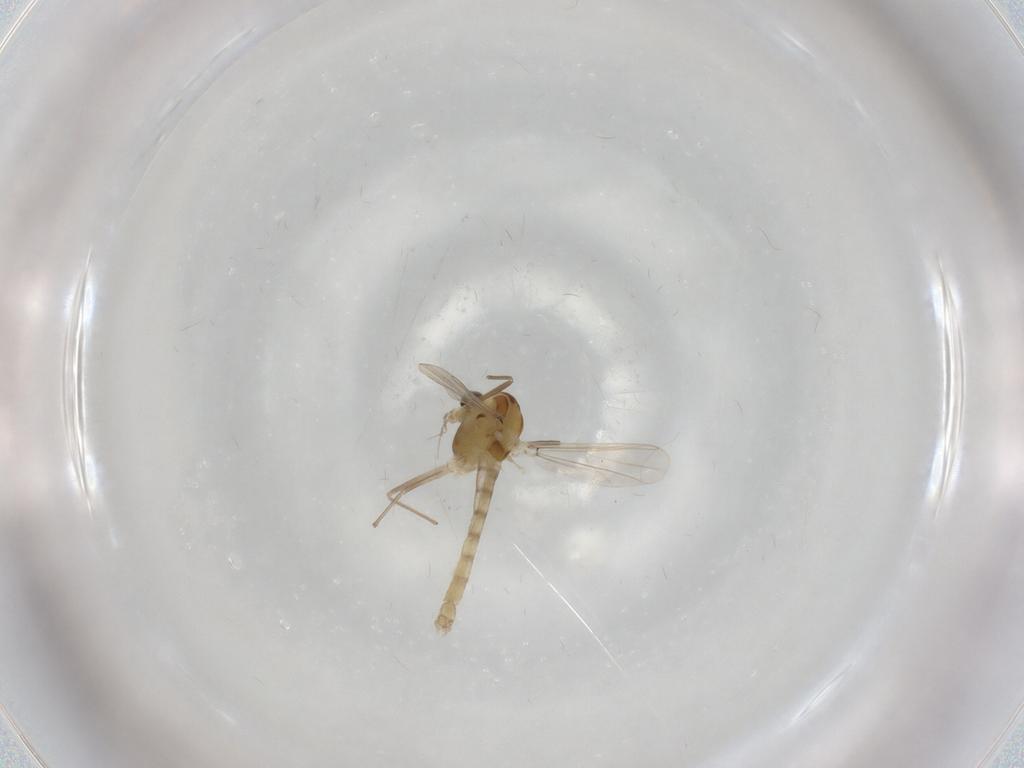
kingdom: Animalia
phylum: Arthropoda
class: Insecta
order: Diptera
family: Chironomidae
